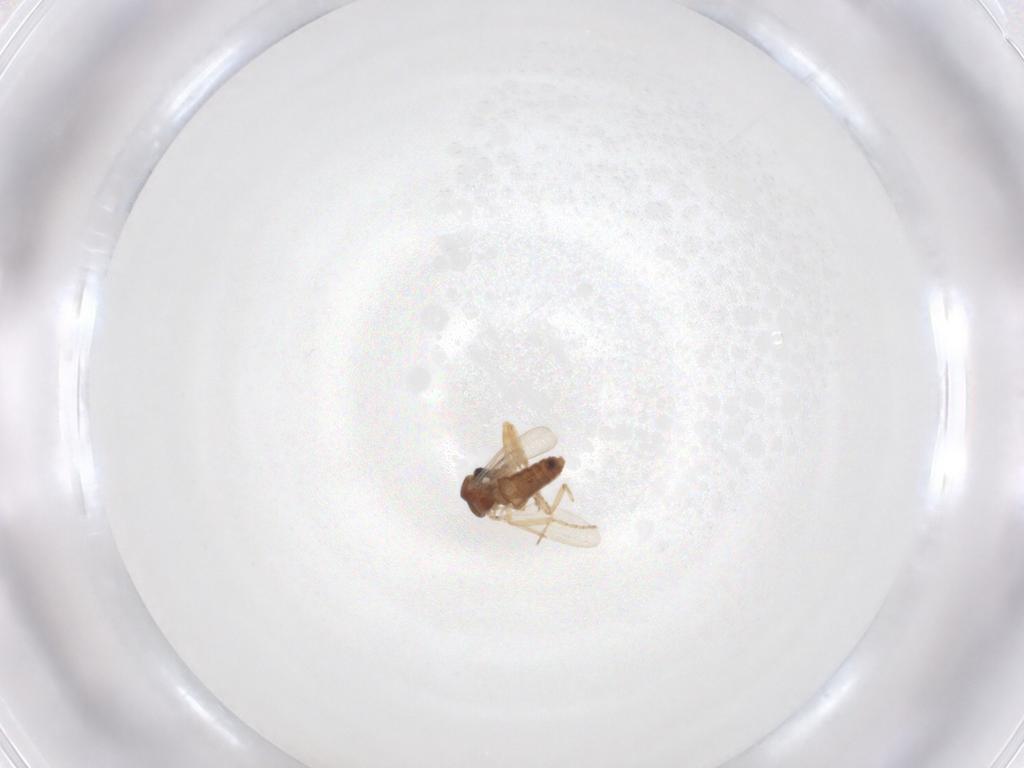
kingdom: Animalia
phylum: Arthropoda
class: Insecta
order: Diptera
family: Ceratopogonidae
